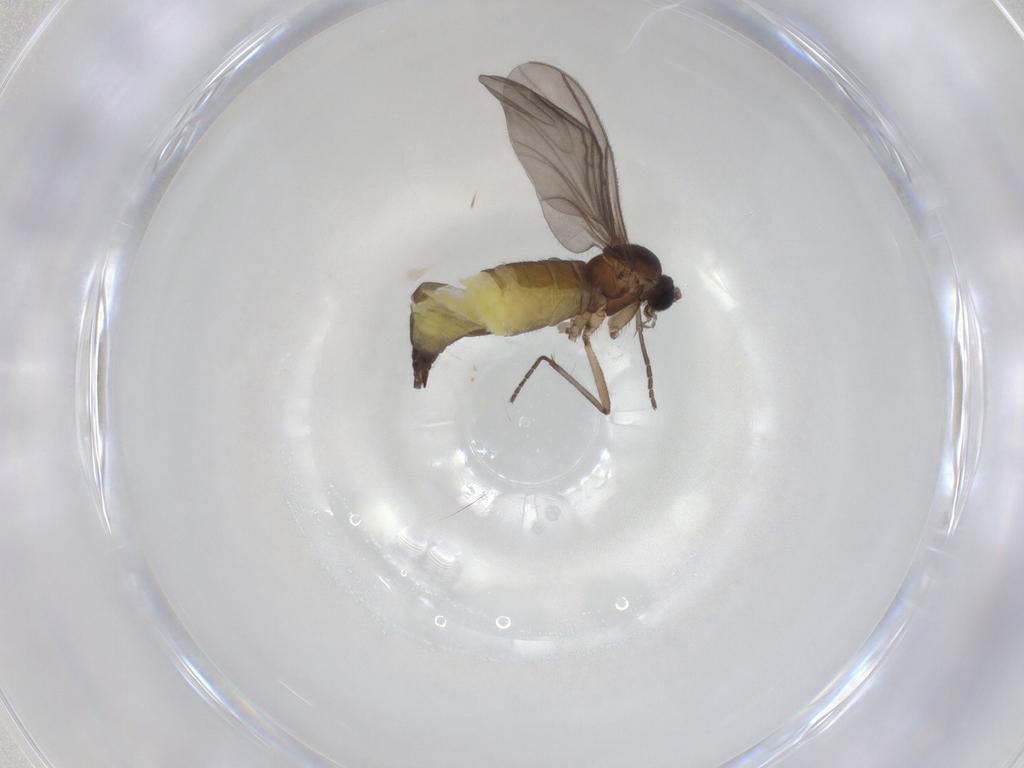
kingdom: Animalia
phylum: Arthropoda
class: Insecta
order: Diptera
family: Sciaridae
